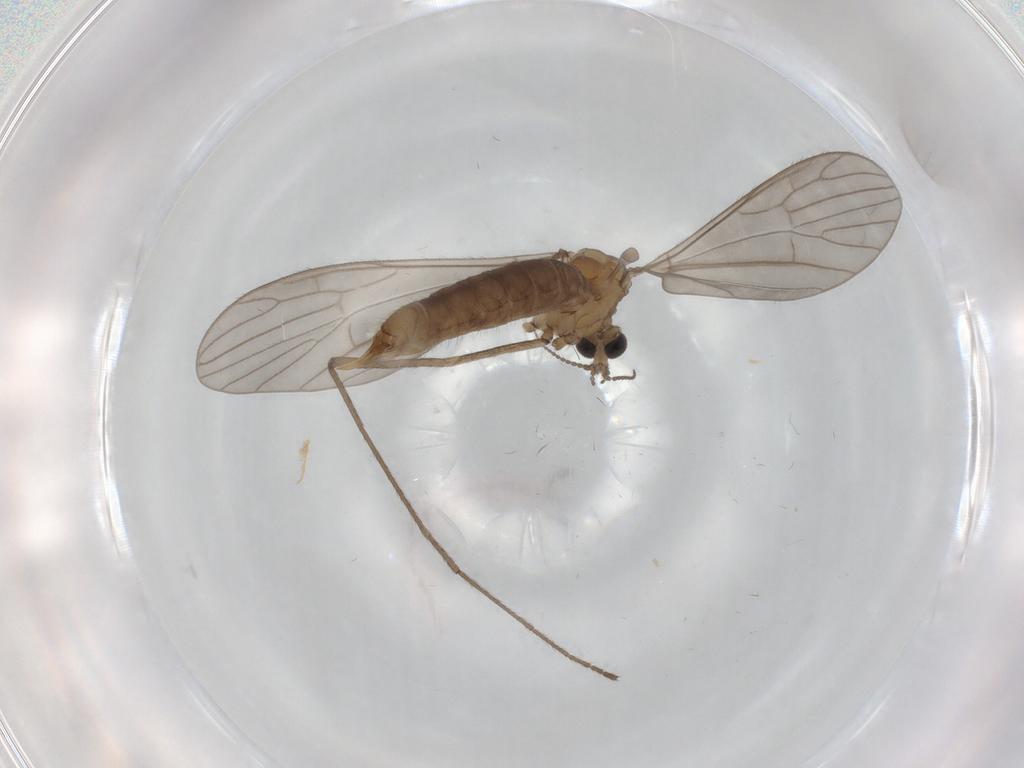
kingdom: Animalia
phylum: Arthropoda
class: Insecta
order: Diptera
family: Limoniidae
